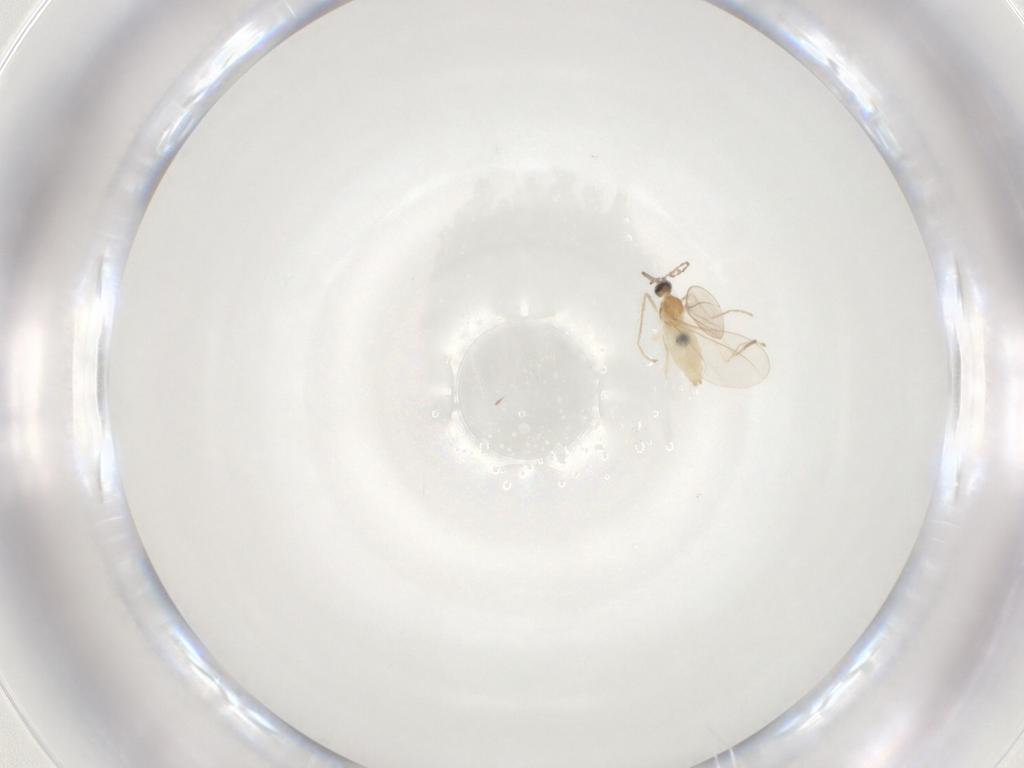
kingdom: Animalia
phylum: Arthropoda
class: Insecta
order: Diptera
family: Cecidomyiidae
